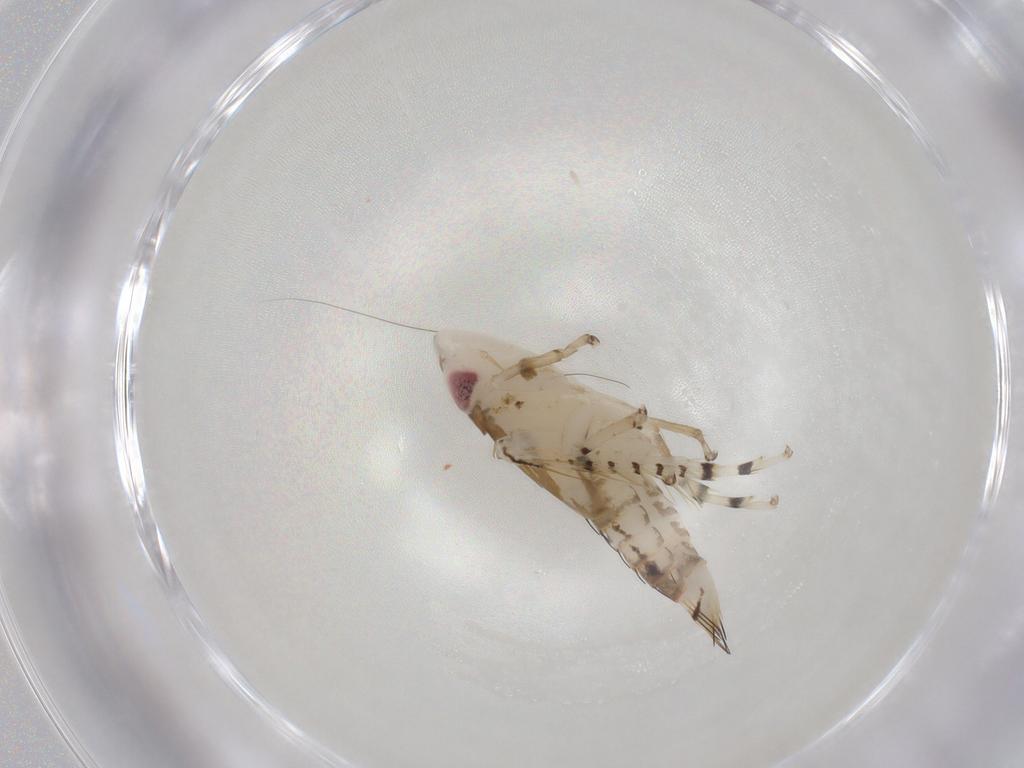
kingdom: Animalia
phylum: Arthropoda
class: Insecta
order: Hemiptera
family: Cicadellidae
